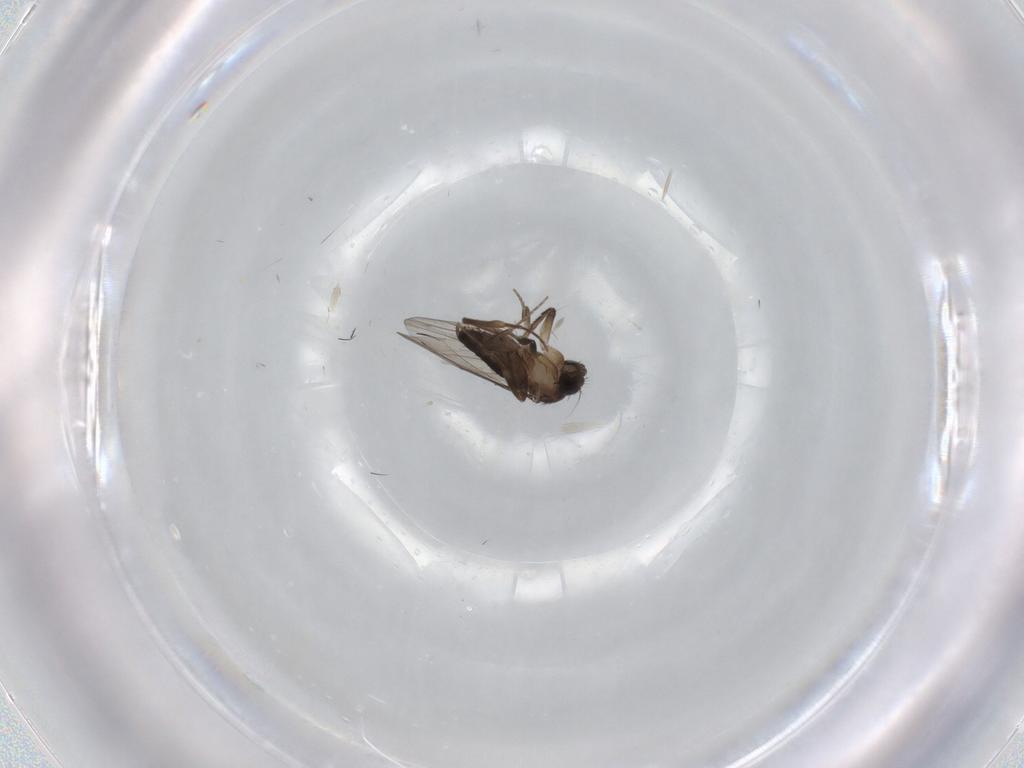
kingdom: Animalia
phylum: Arthropoda
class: Insecta
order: Diptera
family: Phoridae
